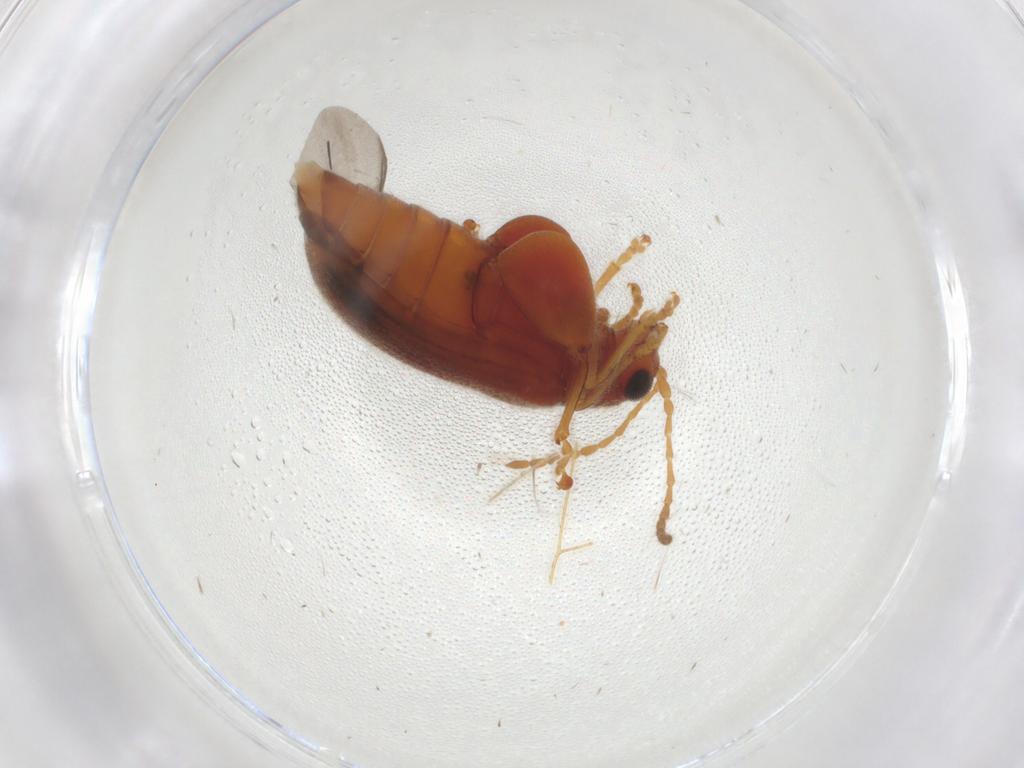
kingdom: Animalia
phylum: Arthropoda
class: Insecta
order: Coleoptera
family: Chrysomelidae
